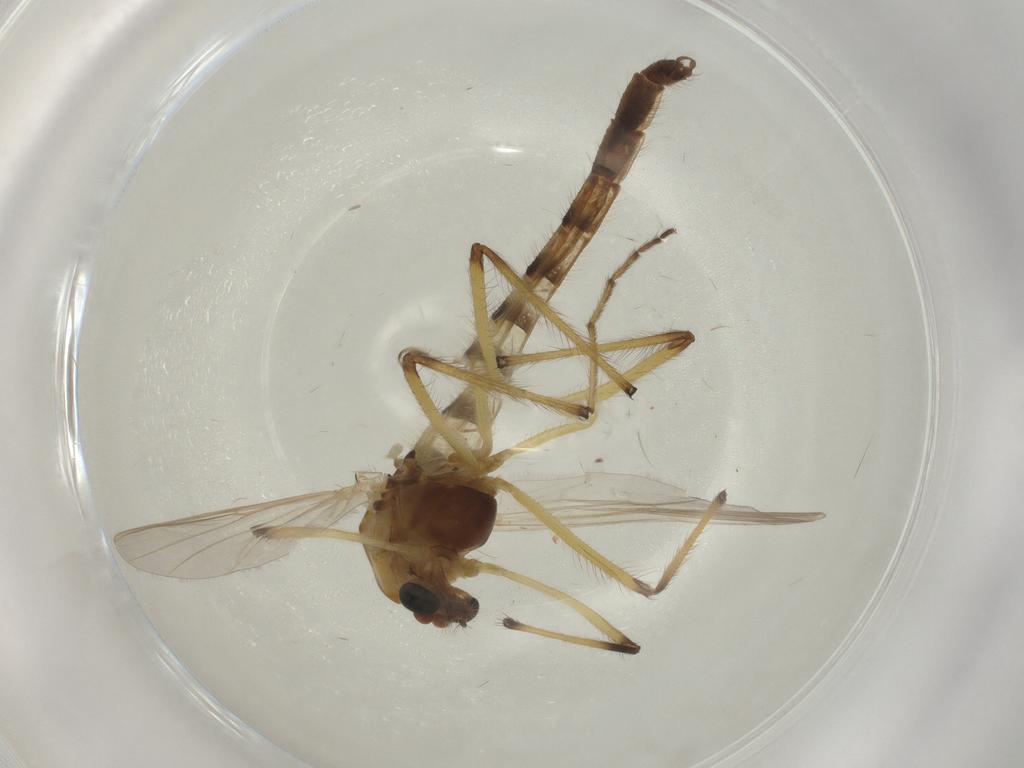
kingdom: Animalia
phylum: Arthropoda
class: Insecta
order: Diptera
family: Chironomidae
